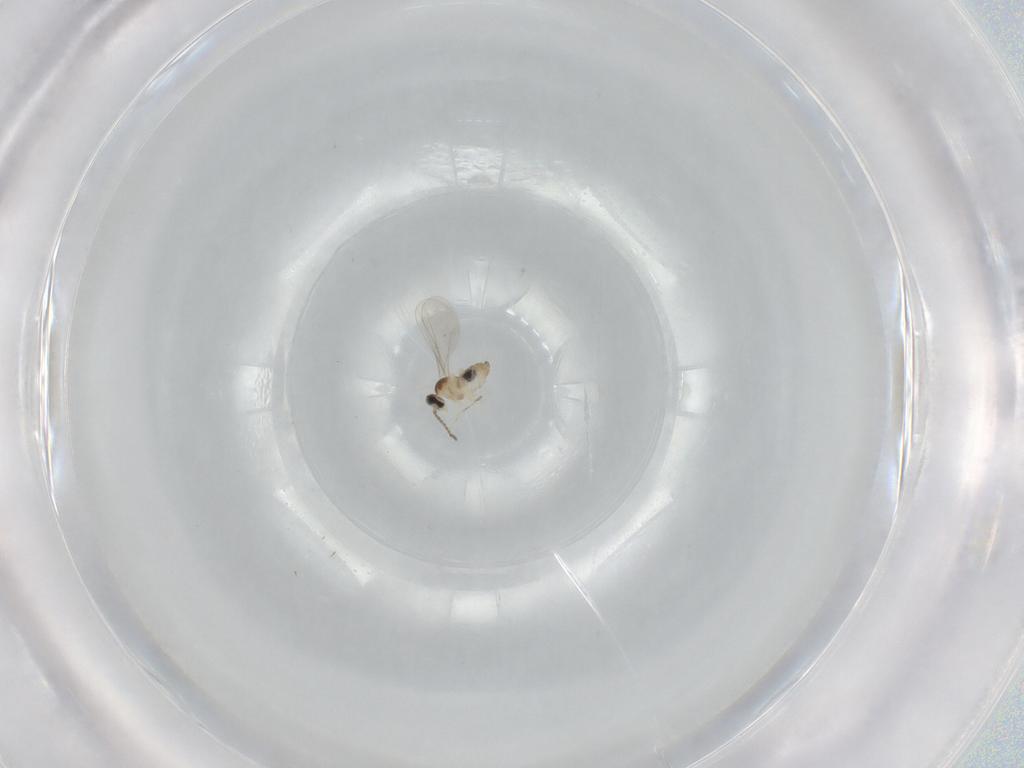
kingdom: Animalia
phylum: Arthropoda
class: Insecta
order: Diptera
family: Cecidomyiidae
